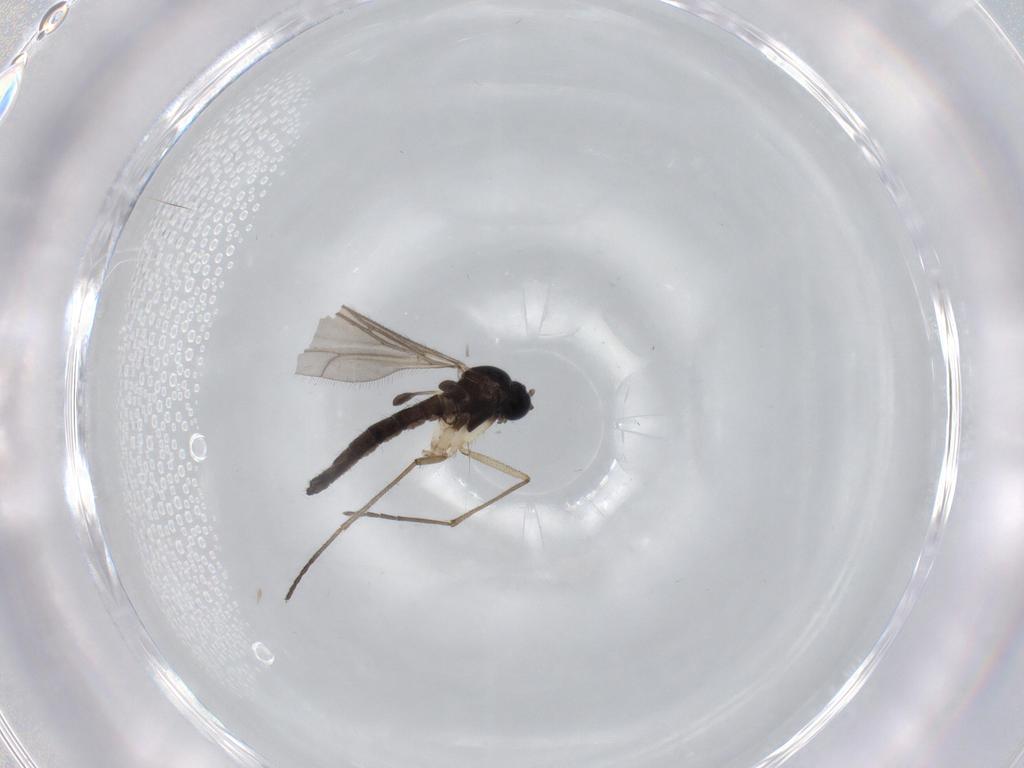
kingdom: Animalia
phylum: Arthropoda
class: Insecta
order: Diptera
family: Sciaridae
